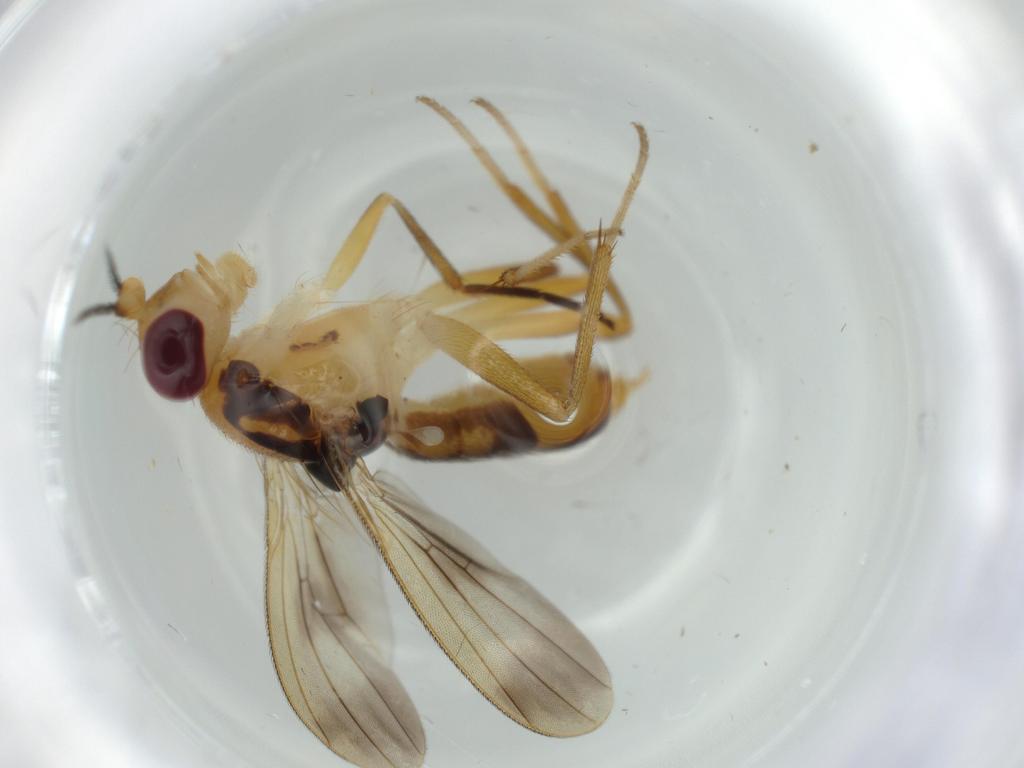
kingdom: Animalia
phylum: Arthropoda
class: Insecta
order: Diptera
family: Clusiidae
